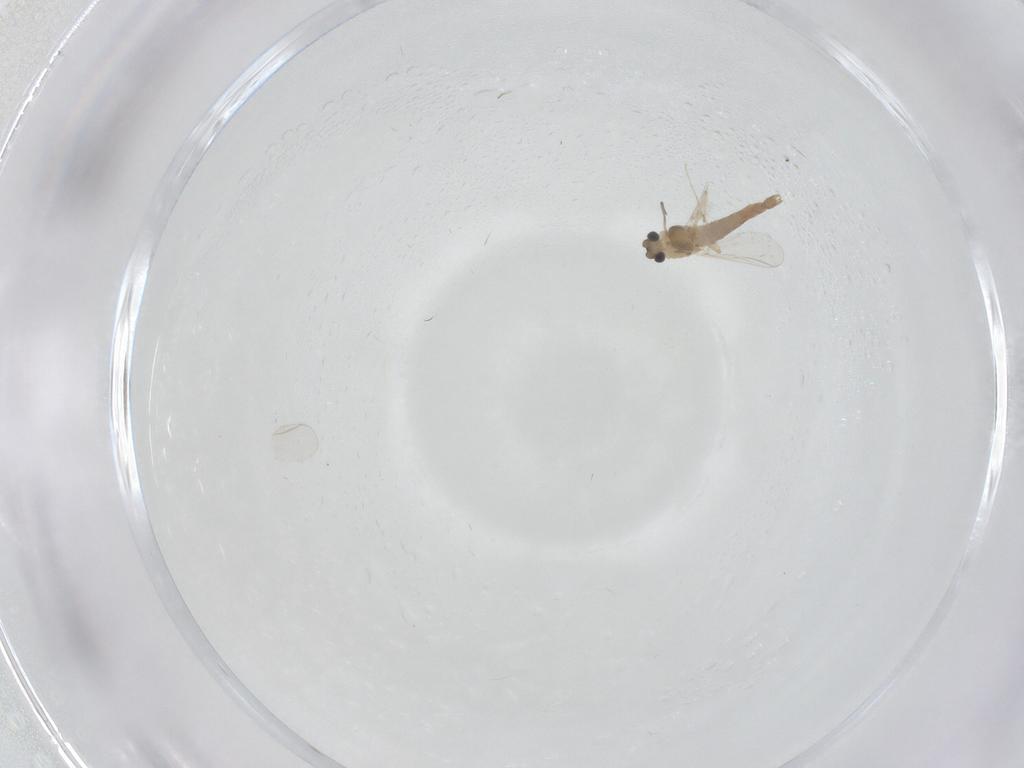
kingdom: Animalia
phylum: Arthropoda
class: Insecta
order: Diptera
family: Chironomidae
